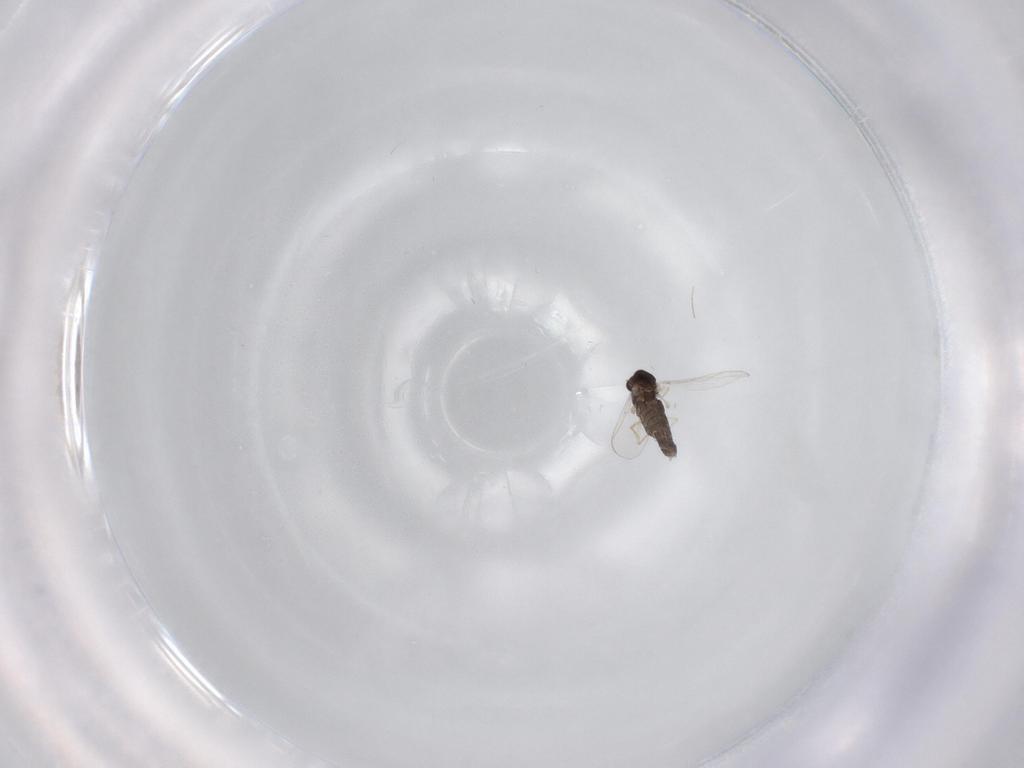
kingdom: Animalia
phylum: Arthropoda
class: Insecta
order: Diptera
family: Chironomidae
